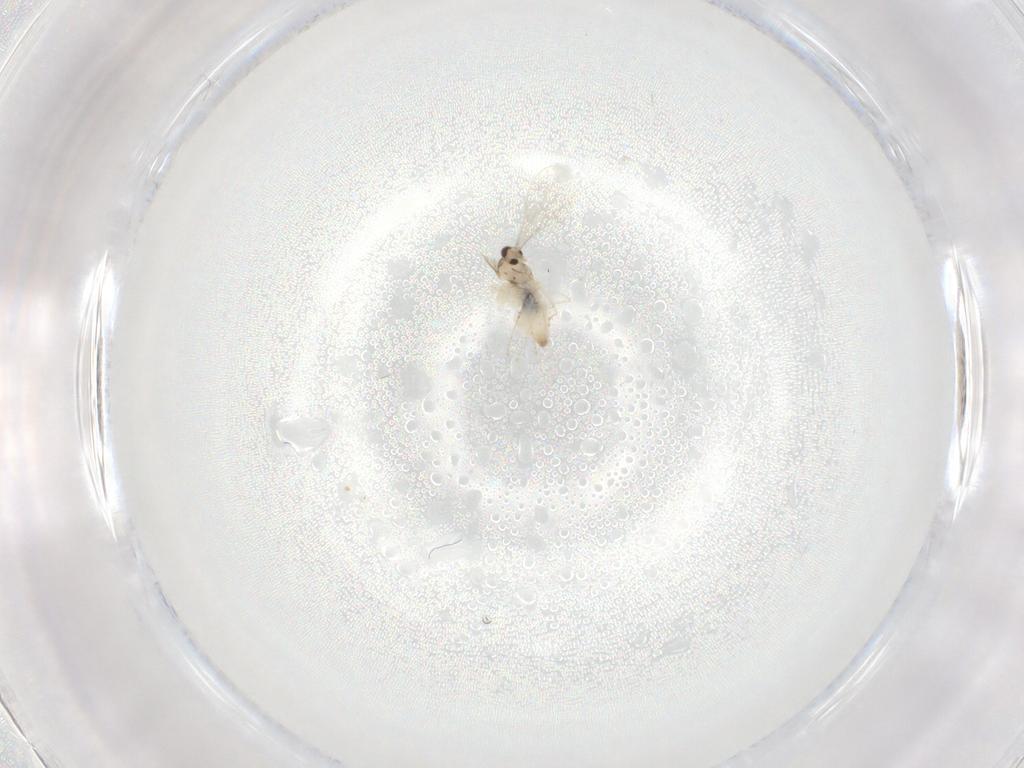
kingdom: Animalia
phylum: Arthropoda
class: Insecta
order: Diptera
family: Cecidomyiidae
